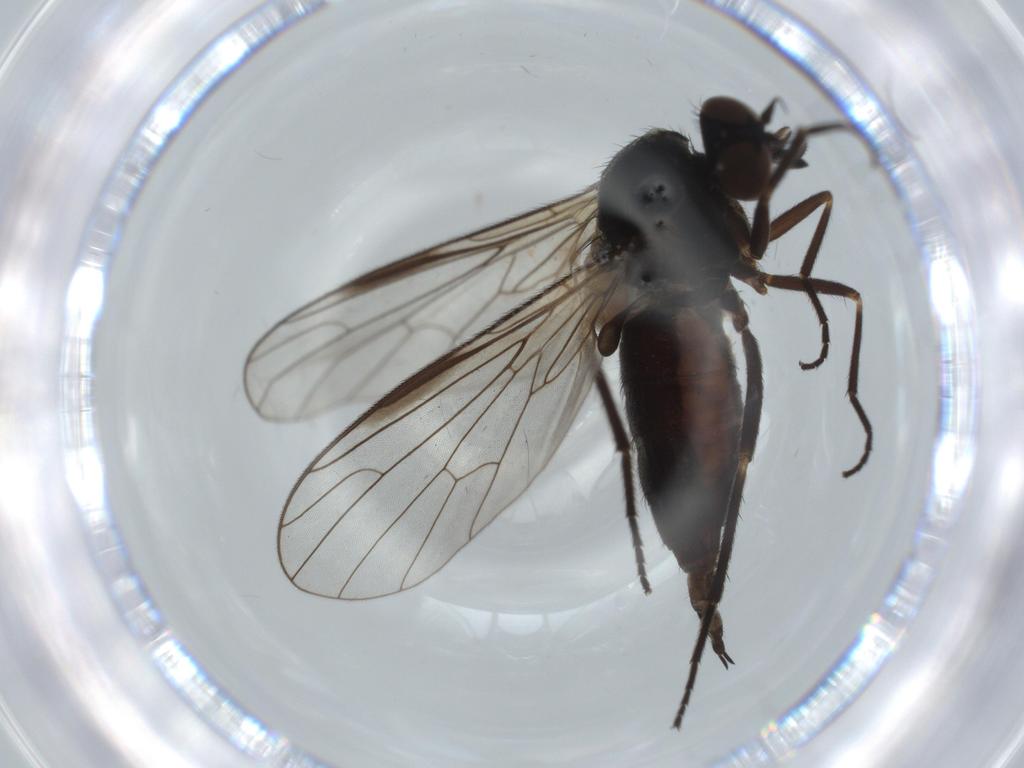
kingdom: Animalia
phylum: Arthropoda
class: Insecta
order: Diptera
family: Empididae
